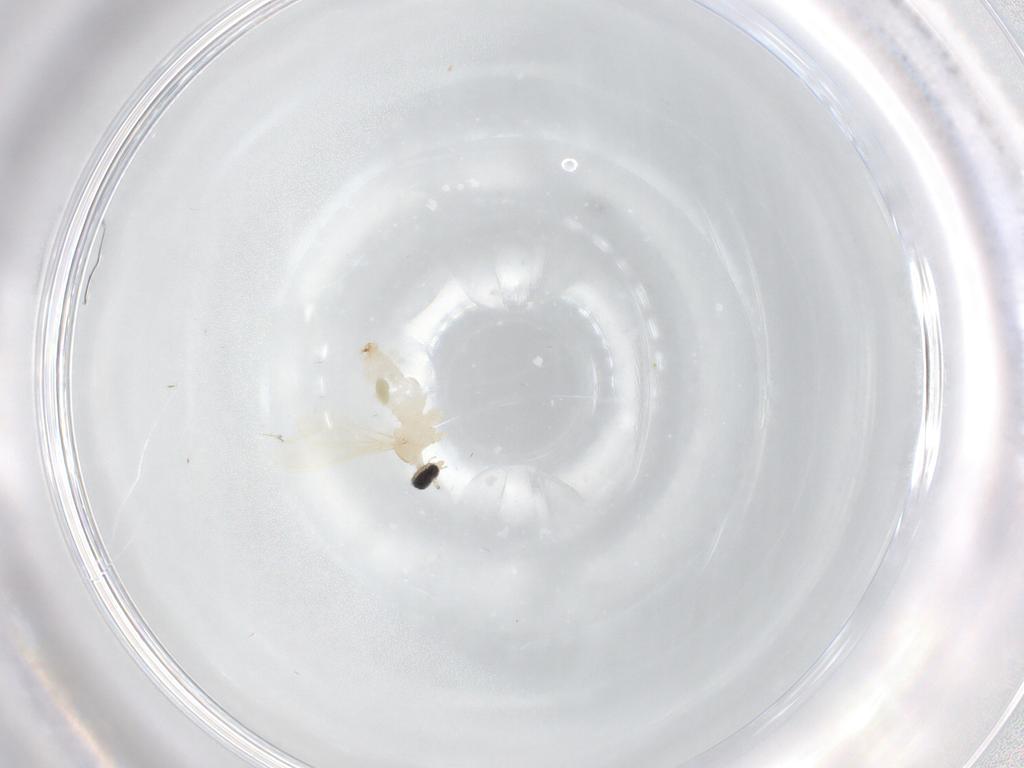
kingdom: Animalia
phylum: Arthropoda
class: Insecta
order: Diptera
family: Cecidomyiidae
